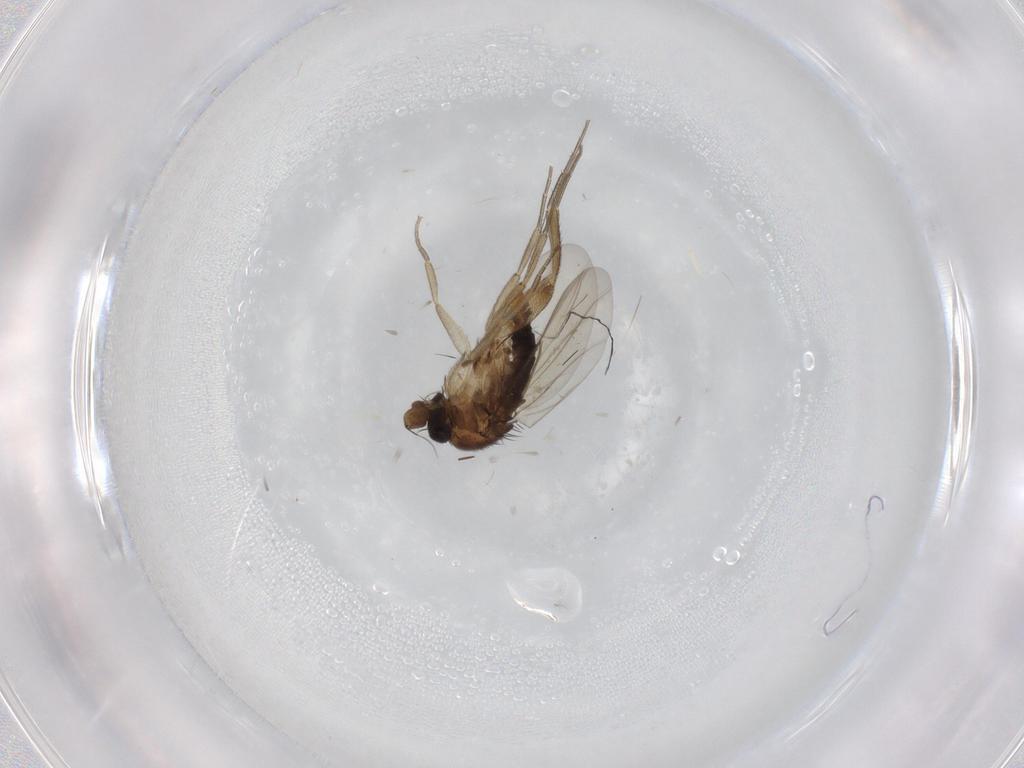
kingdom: Animalia
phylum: Arthropoda
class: Insecta
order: Diptera
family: Phoridae
